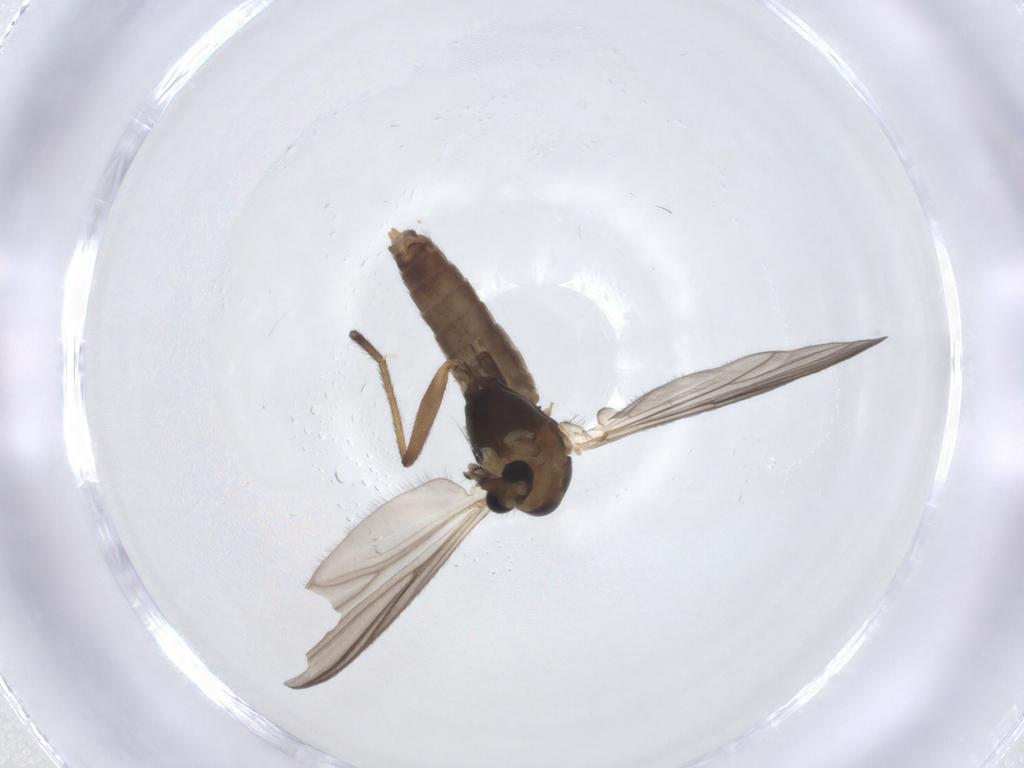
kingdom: Animalia
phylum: Arthropoda
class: Insecta
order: Diptera
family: Chironomidae
